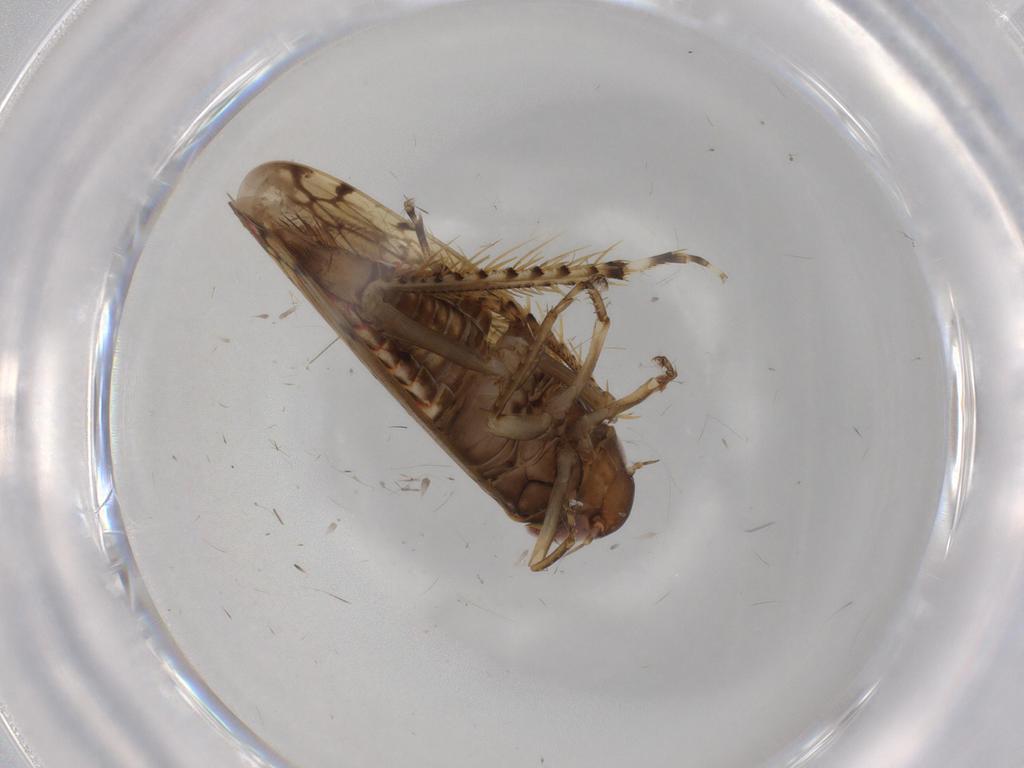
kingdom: Animalia
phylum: Arthropoda
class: Insecta
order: Hemiptera
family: Cicadellidae
